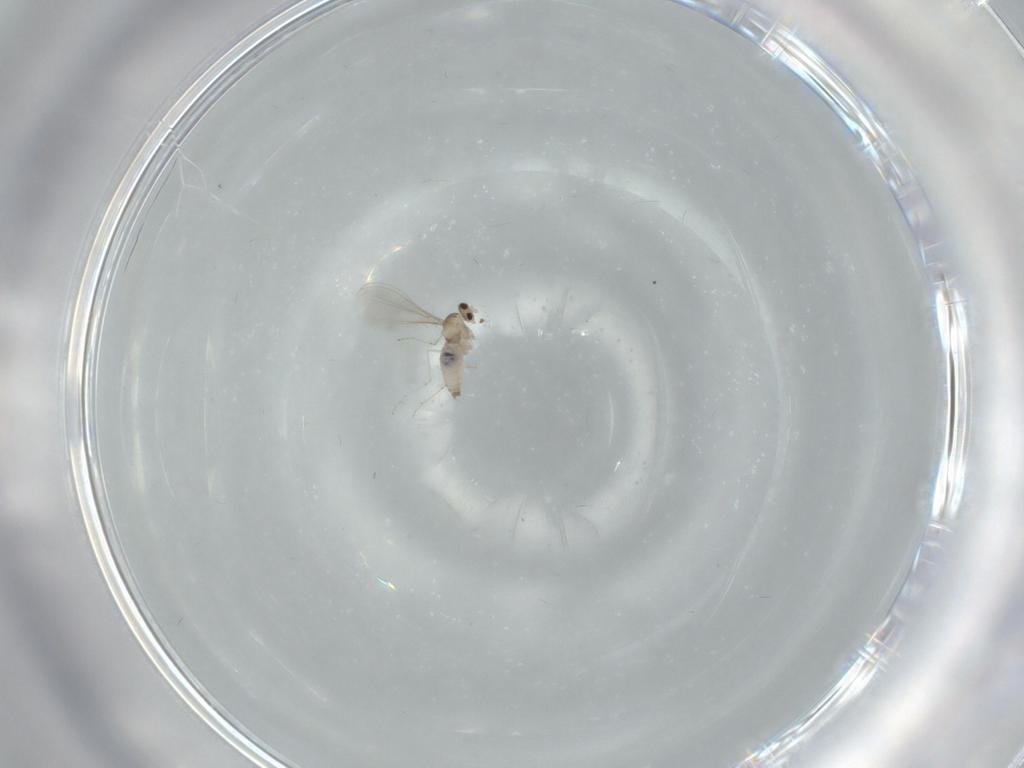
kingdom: Animalia
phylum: Arthropoda
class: Insecta
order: Diptera
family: Cecidomyiidae
